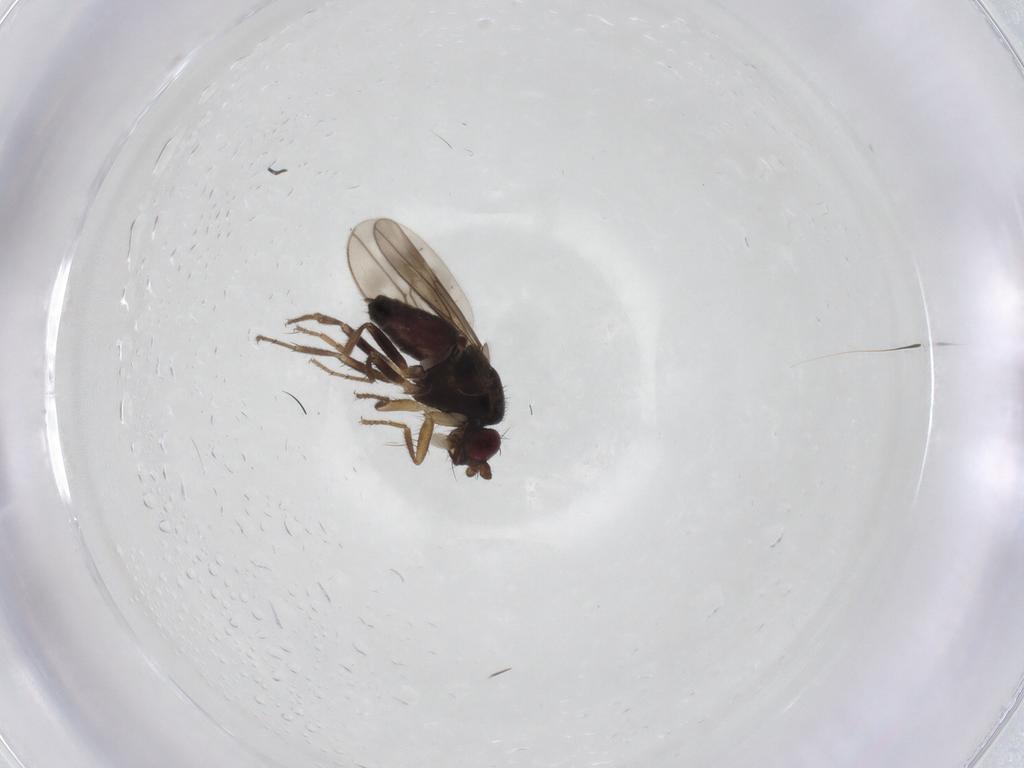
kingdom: Animalia
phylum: Arthropoda
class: Insecta
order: Diptera
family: Sphaeroceridae
